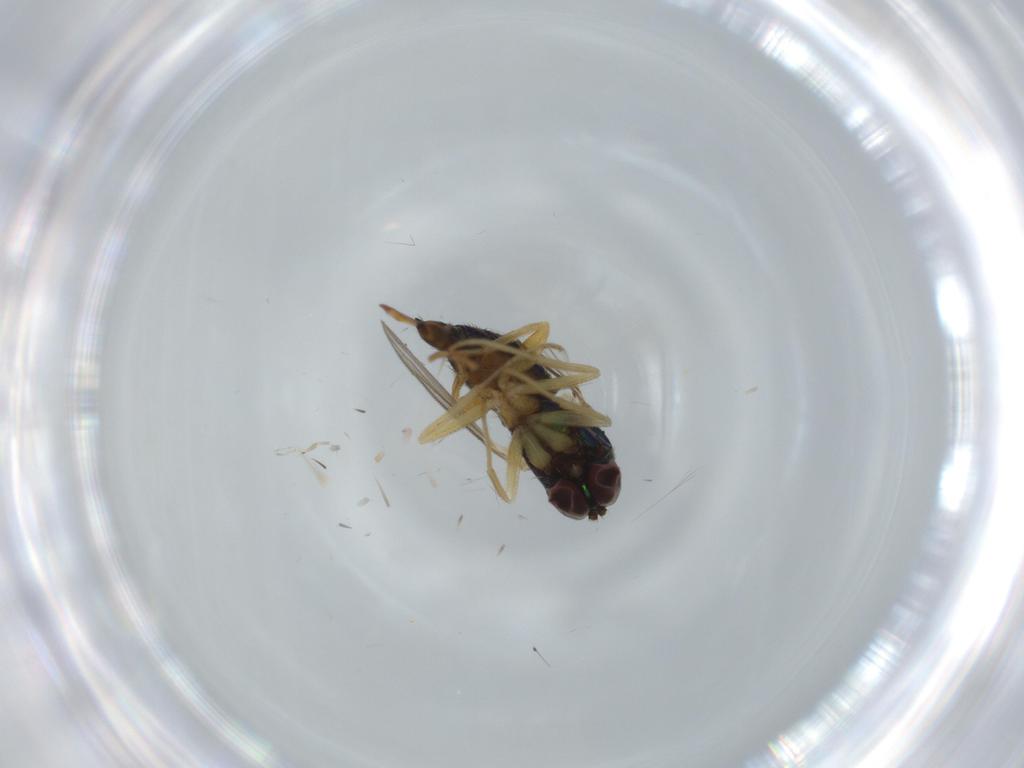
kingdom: Animalia
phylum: Arthropoda
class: Insecta
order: Diptera
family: Dolichopodidae
